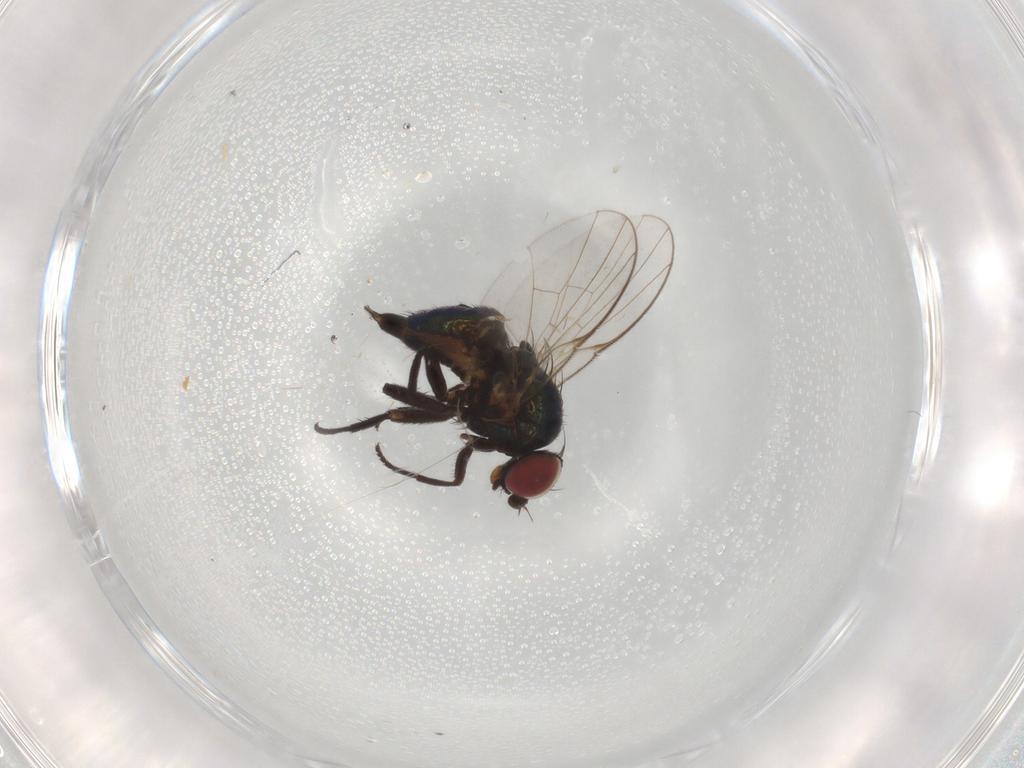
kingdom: Animalia
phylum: Arthropoda
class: Insecta
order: Diptera
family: Agromyzidae
